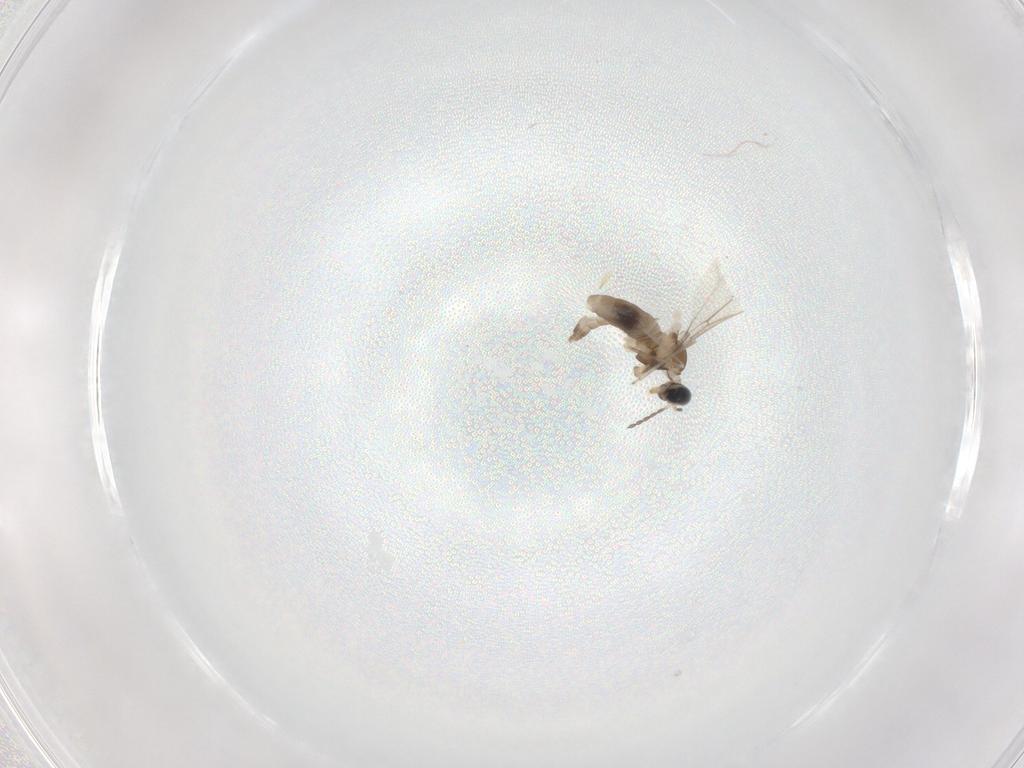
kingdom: Animalia
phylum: Arthropoda
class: Insecta
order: Diptera
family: Cecidomyiidae
